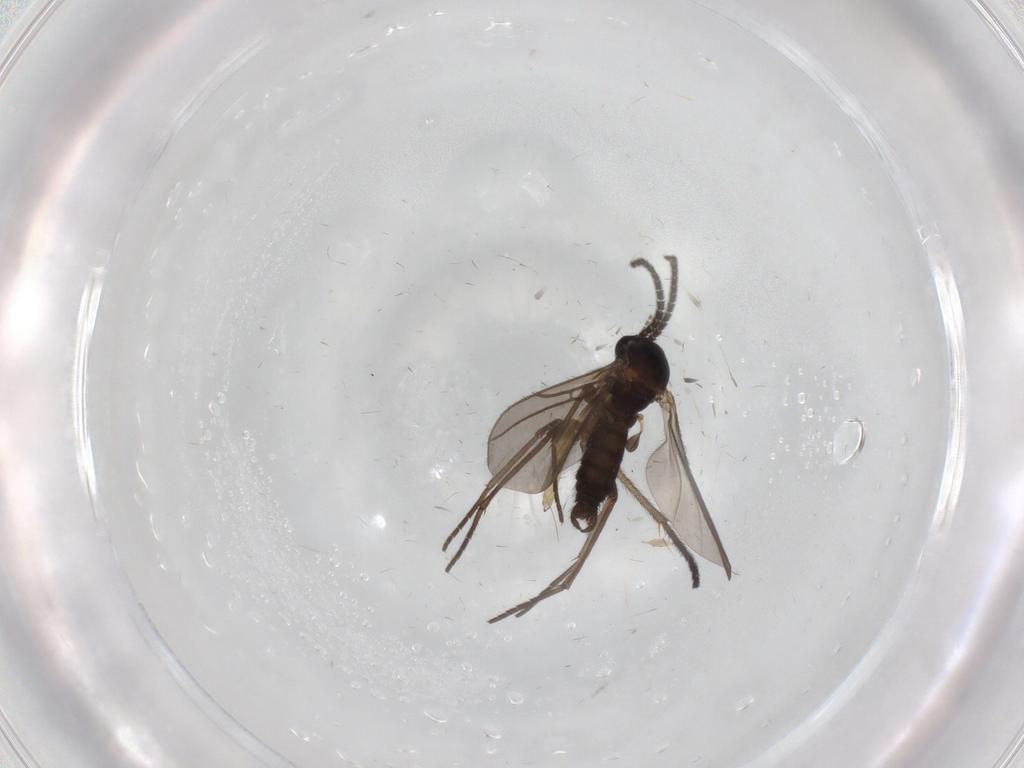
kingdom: Animalia
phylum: Arthropoda
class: Insecta
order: Diptera
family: Sciaridae
